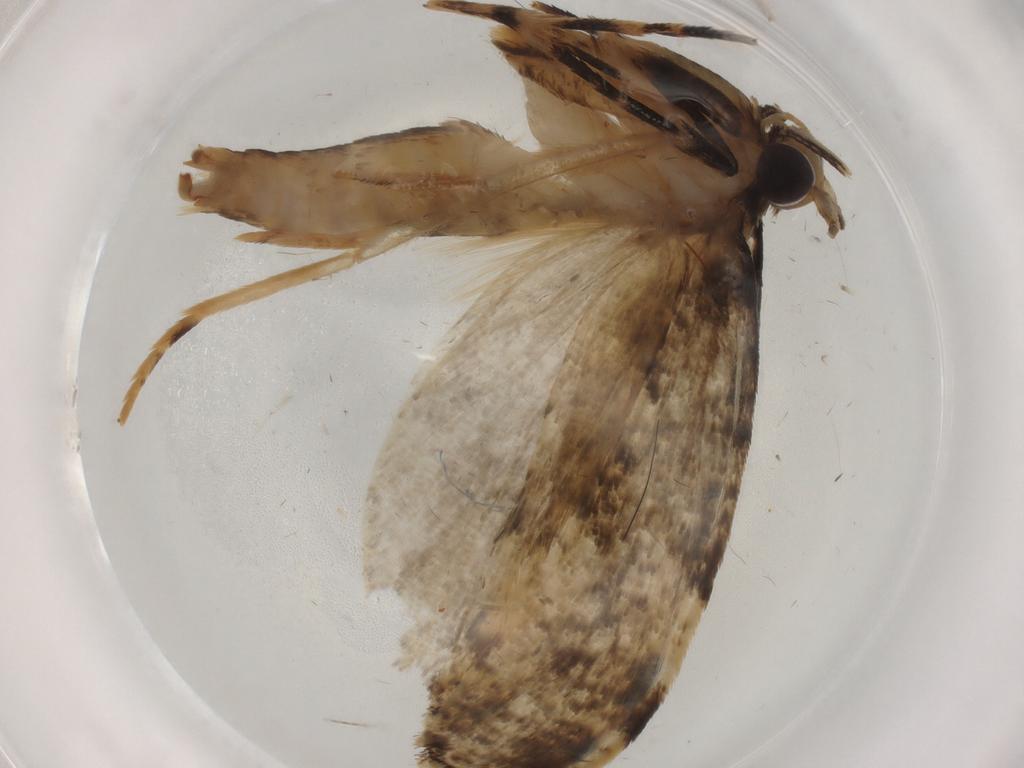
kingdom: Animalia
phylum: Arthropoda
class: Insecta
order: Lepidoptera
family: Tineidae
